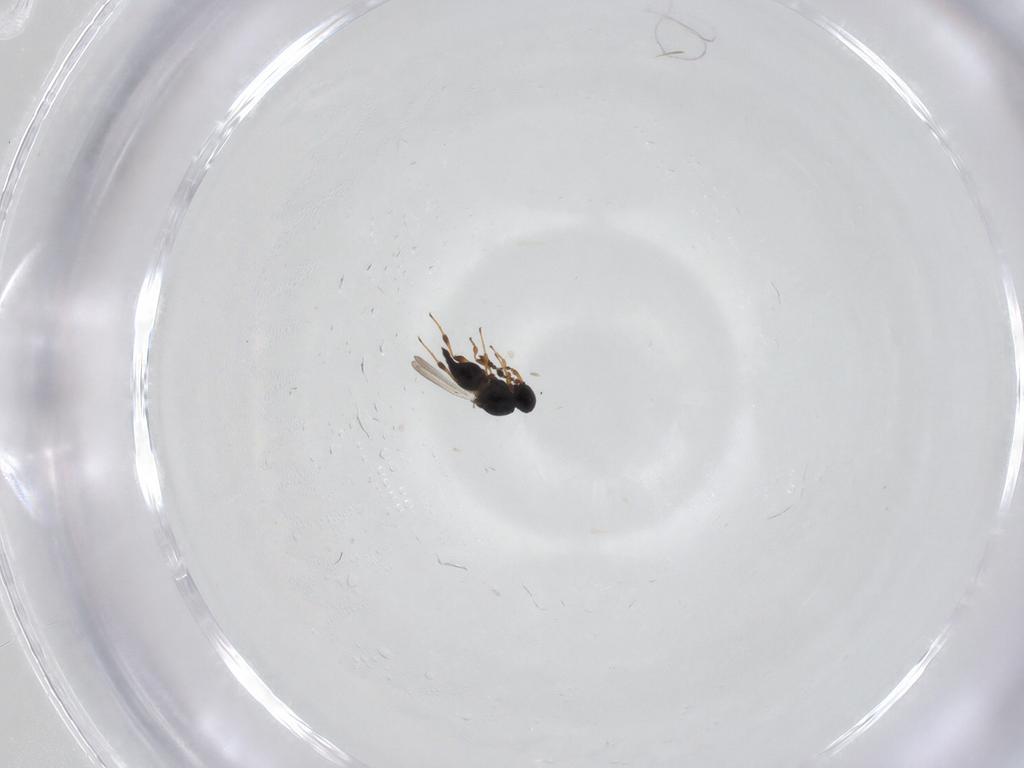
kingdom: Animalia
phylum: Arthropoda
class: Insecta
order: Hymenoptera
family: Platygastridae
